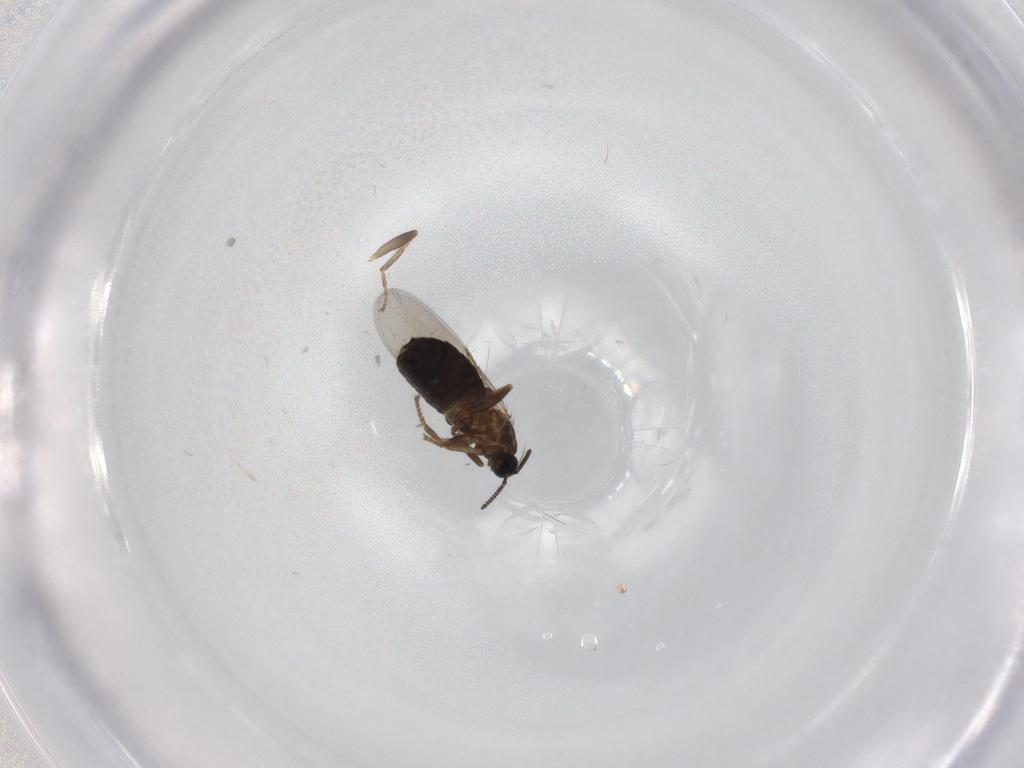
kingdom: Animalia
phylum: Arthropoda
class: Insecta
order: Diptera
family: Scatopsidae
